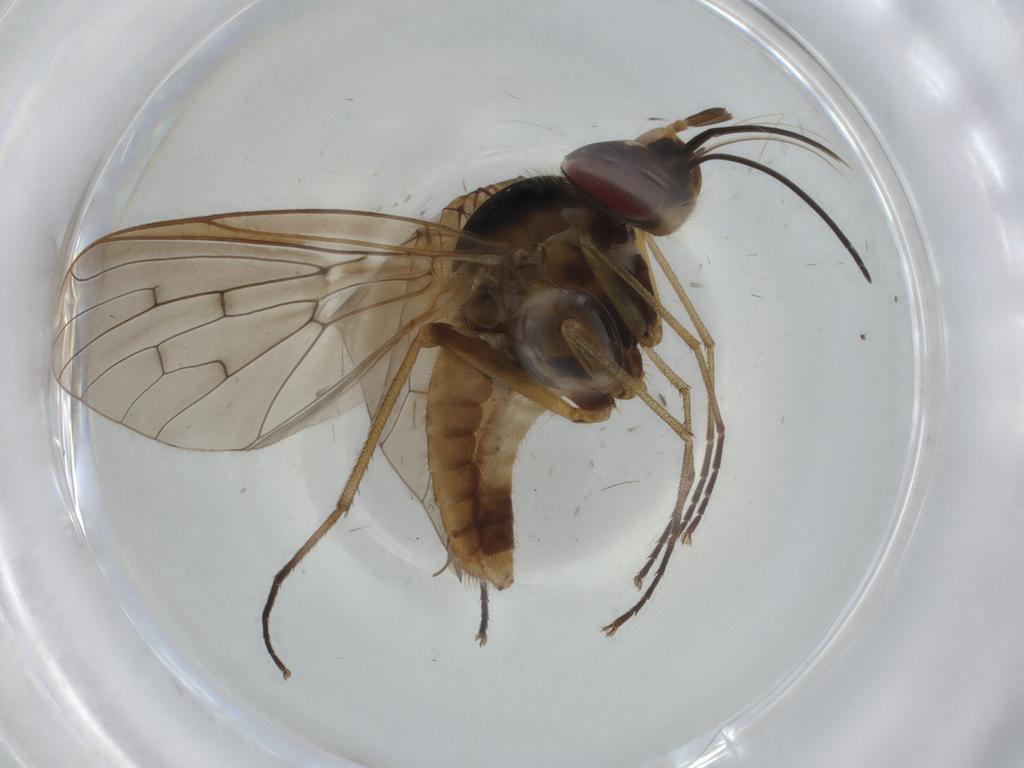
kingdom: Animalia
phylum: Arthropoda
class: Insecta
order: Diptera
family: Bombyliidae
